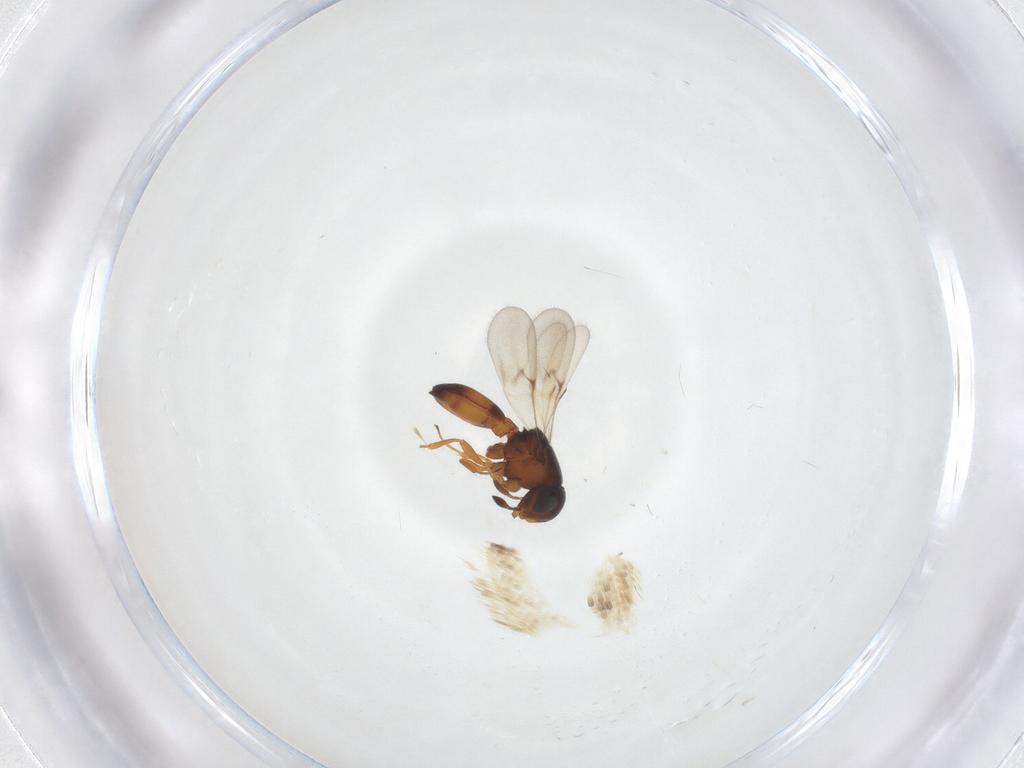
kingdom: Animalia
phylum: Arthropoda
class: Arachnida
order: Araneae
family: Pholcidae
